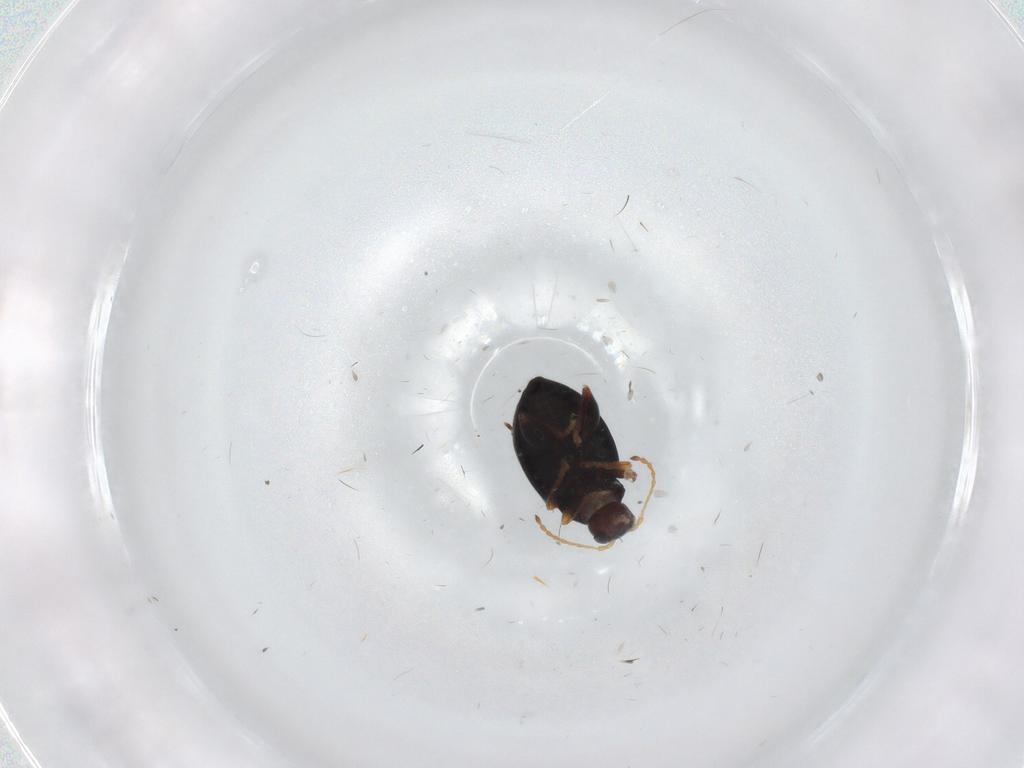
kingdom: Animalia
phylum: Arthropoda
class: Insecta
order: Coleoptera
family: Chrysomelidae
